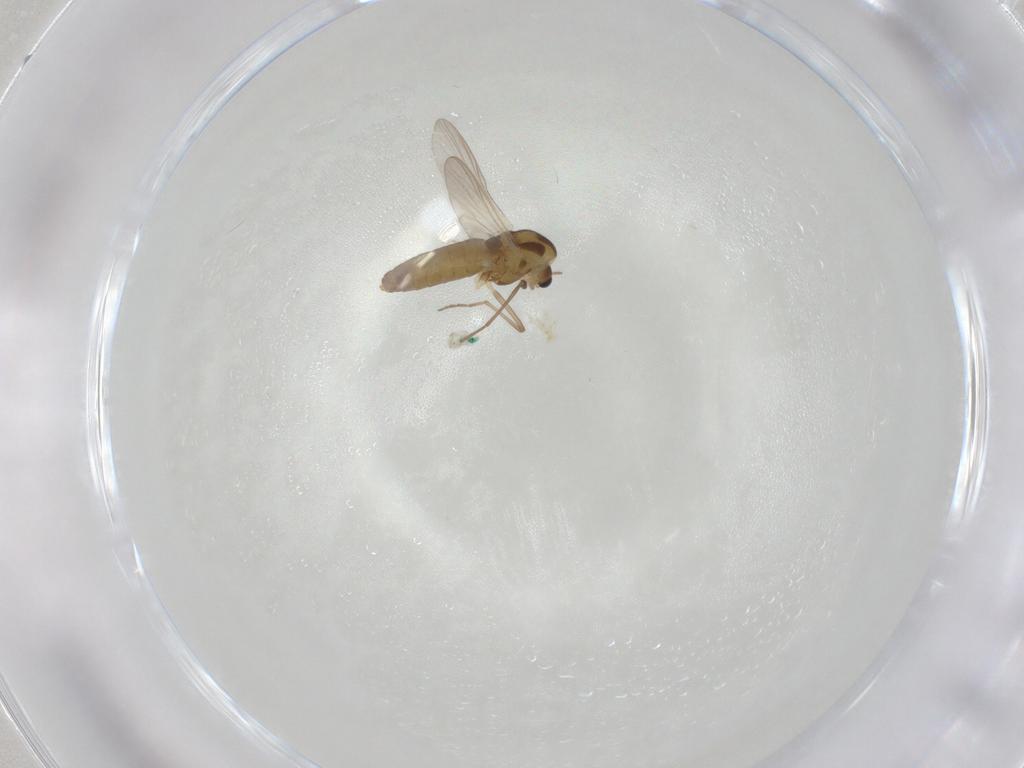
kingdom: Animalia
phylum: Arthropoda
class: Insecta
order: Diptera
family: Chironomidae
